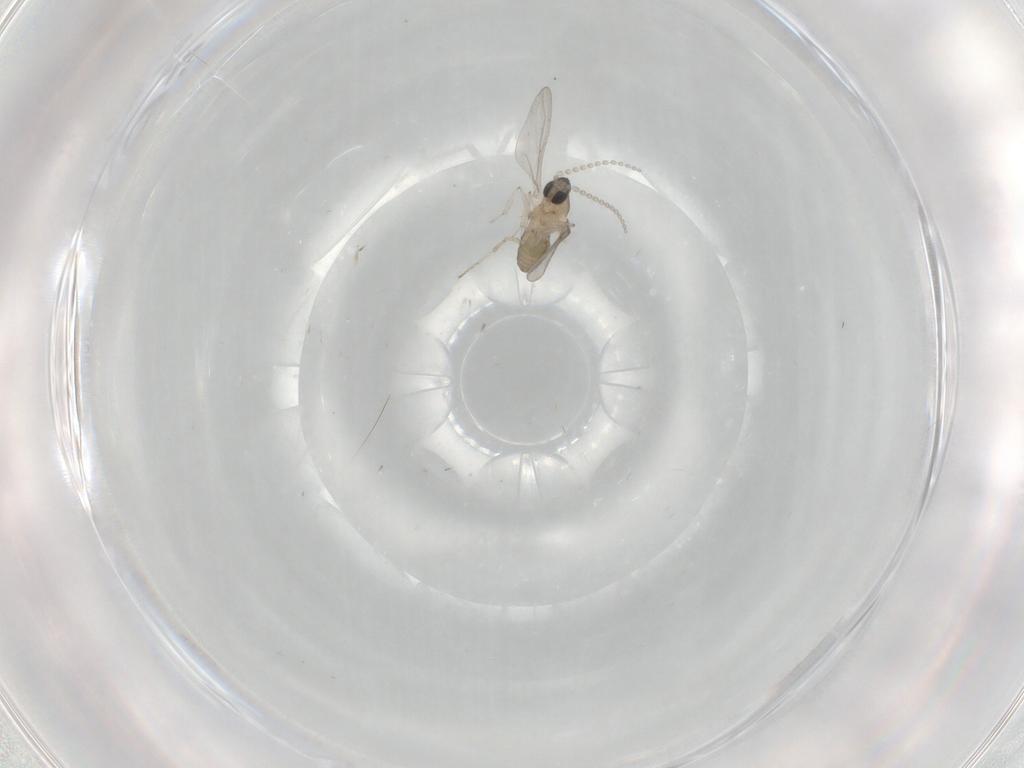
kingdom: Animalia
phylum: Arthropoda
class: Insecta
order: Diptera
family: Cecidomyiidae
